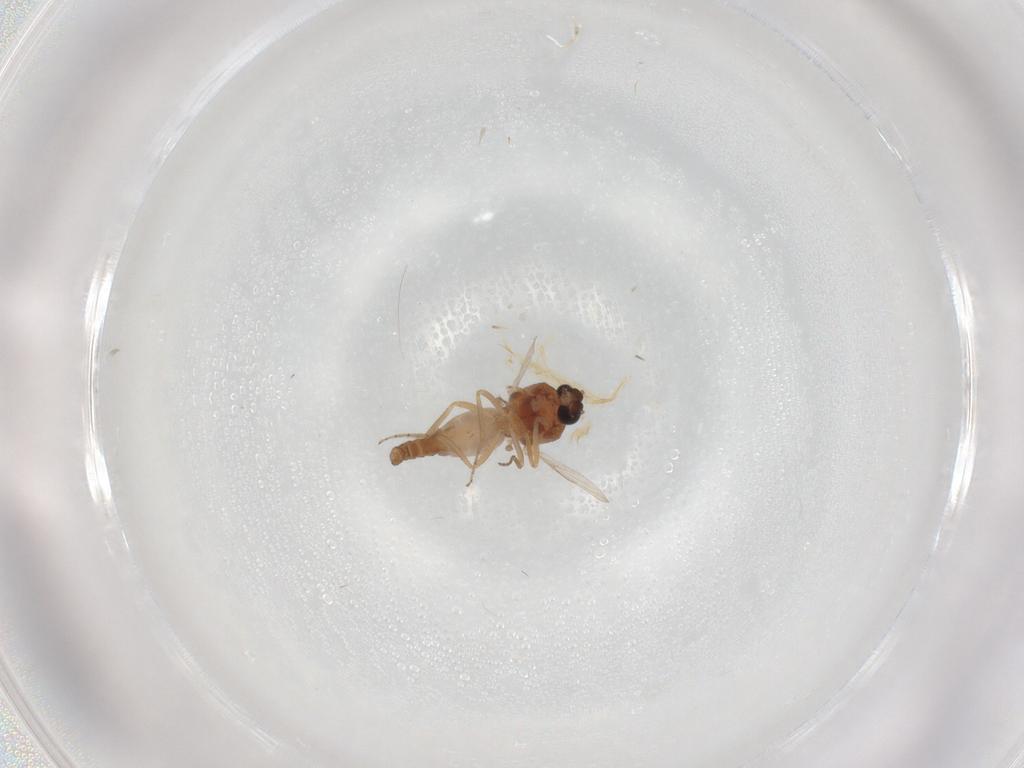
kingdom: Animalia
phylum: Arthropoda
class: Insecta
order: Diptera
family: Ceratopogonidae
